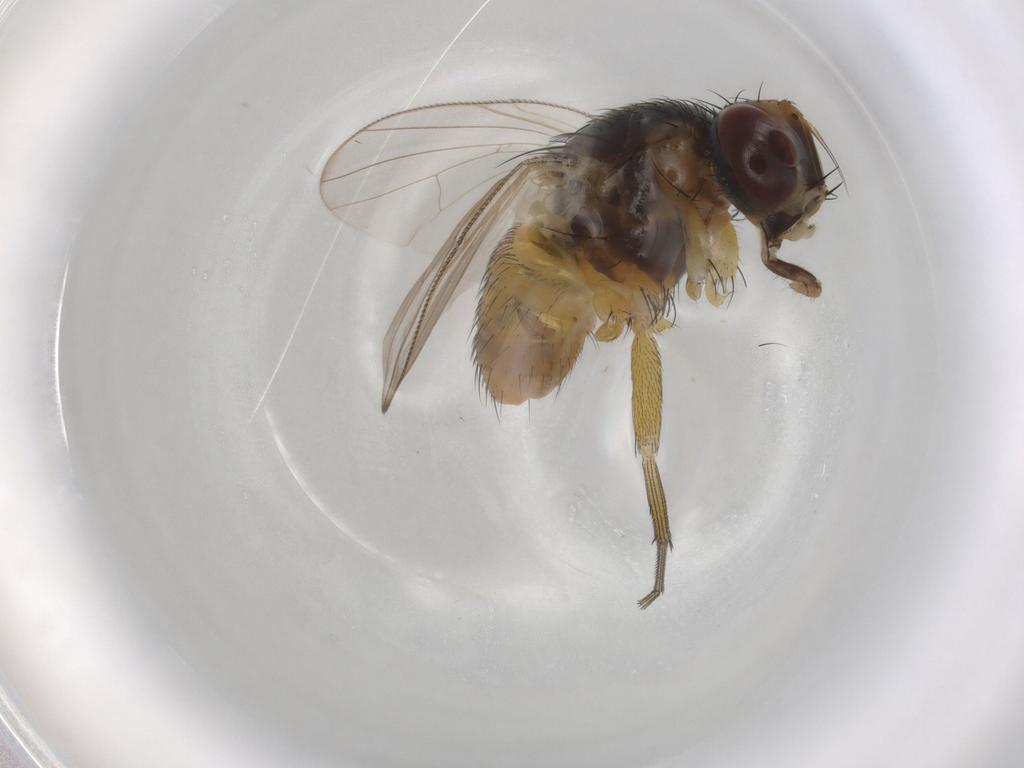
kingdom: Animalia
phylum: Arthropoda
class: Insecta
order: Diptera
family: Muscidae
